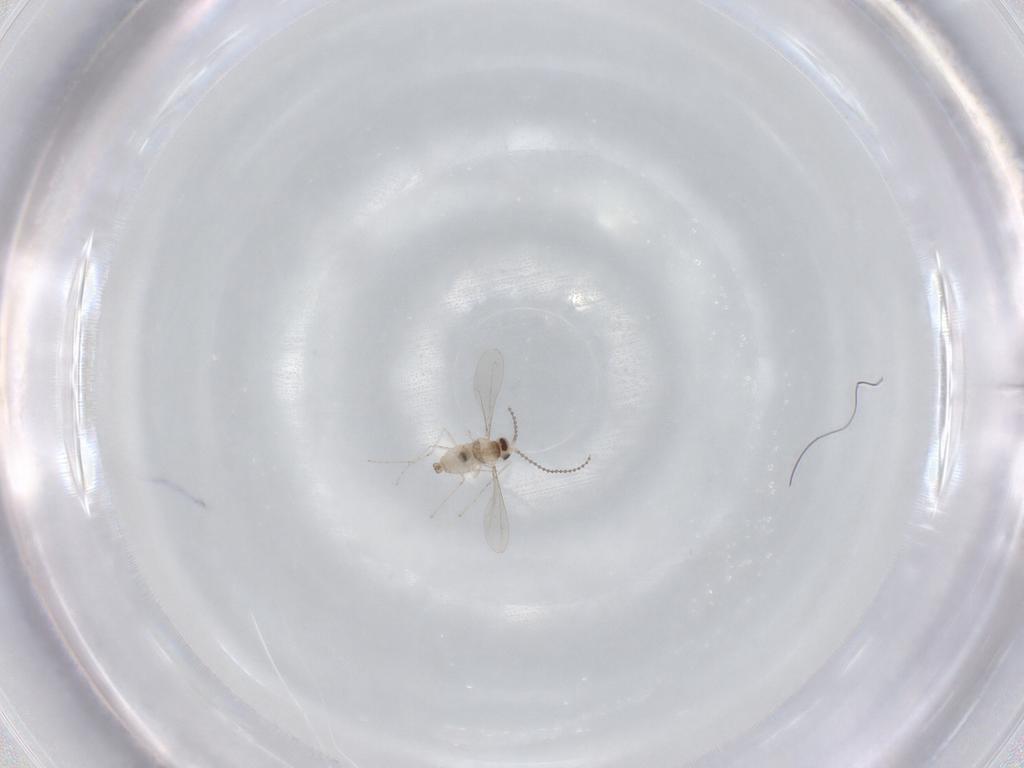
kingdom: Animalia
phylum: Arthropoda
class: Insecta
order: Diptera
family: Cecidomyiidae
